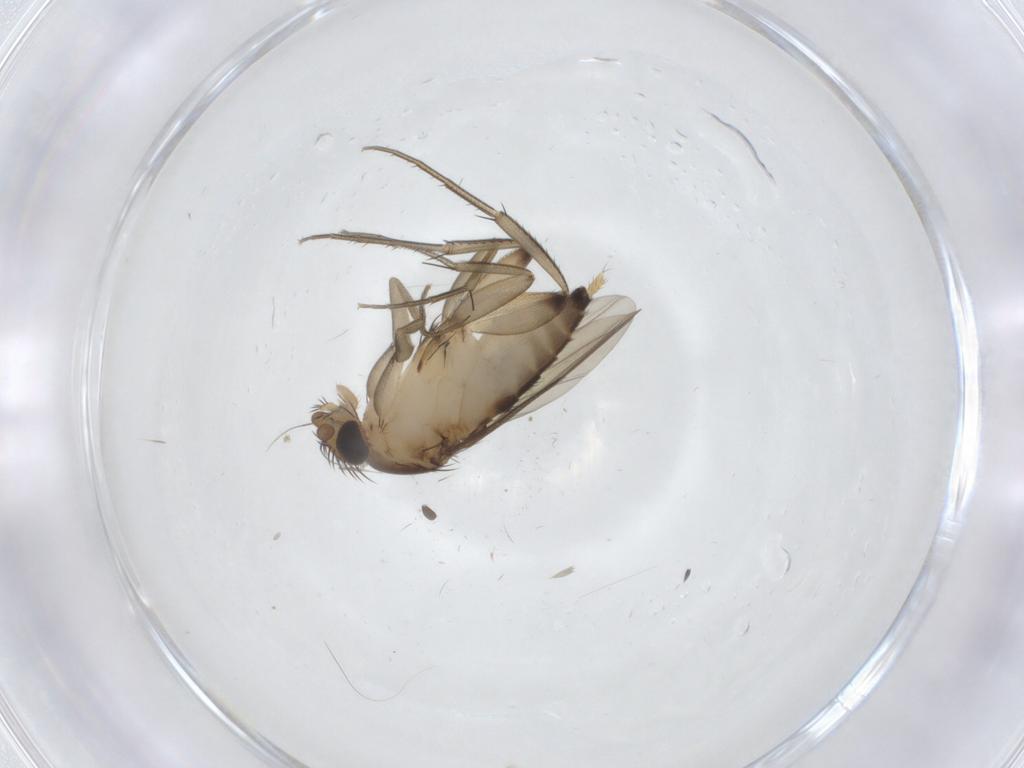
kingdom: Animalia
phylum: Arthropoda
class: Insecta
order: Diptera
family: Phoridae
